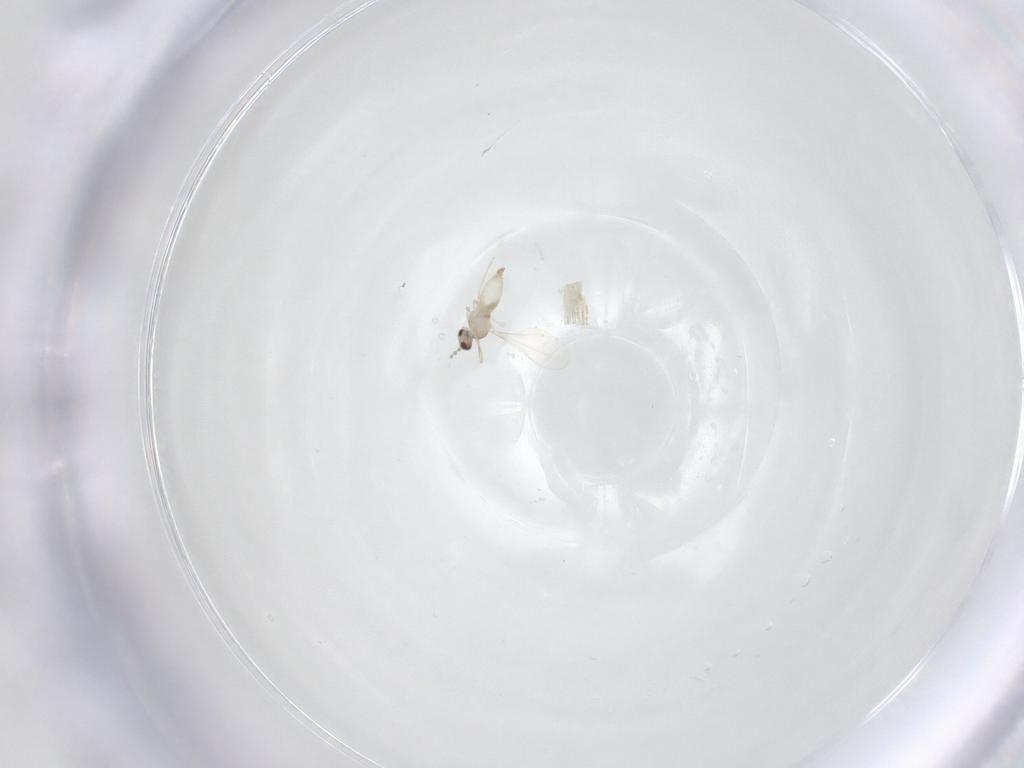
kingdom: Animalia
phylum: Arthropoda
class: Insecta
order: Diptera
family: Cecidomyiidae
